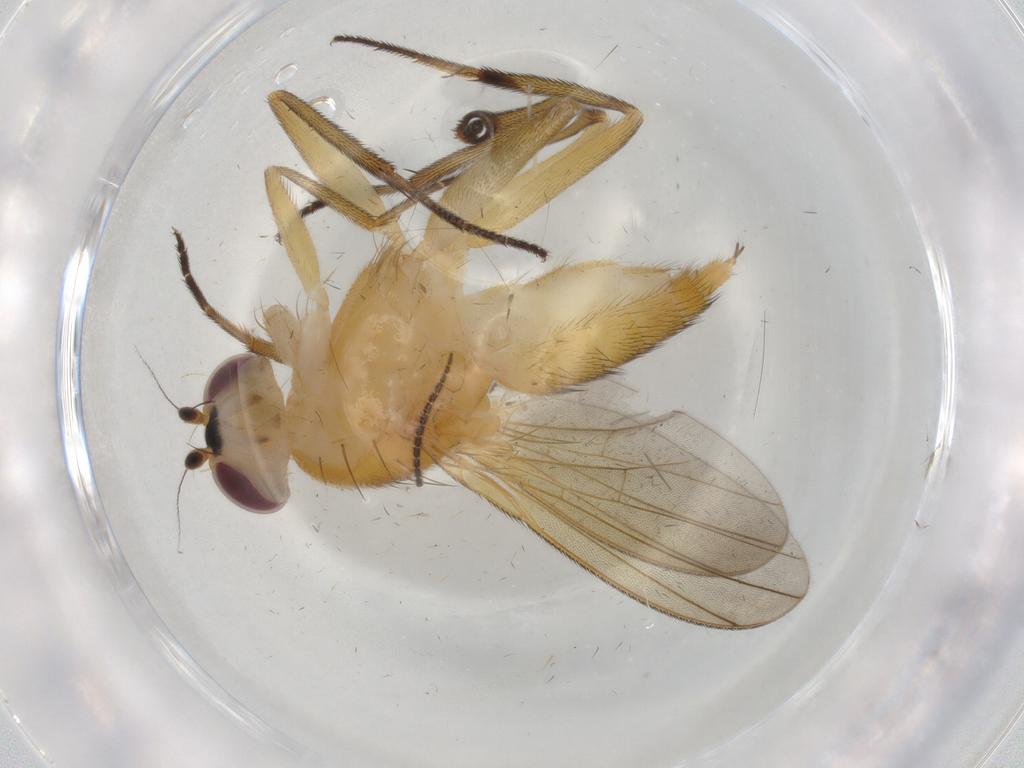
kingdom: Animalia
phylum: Arthropoda
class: Insecta
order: Diptera
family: Clusiidae
